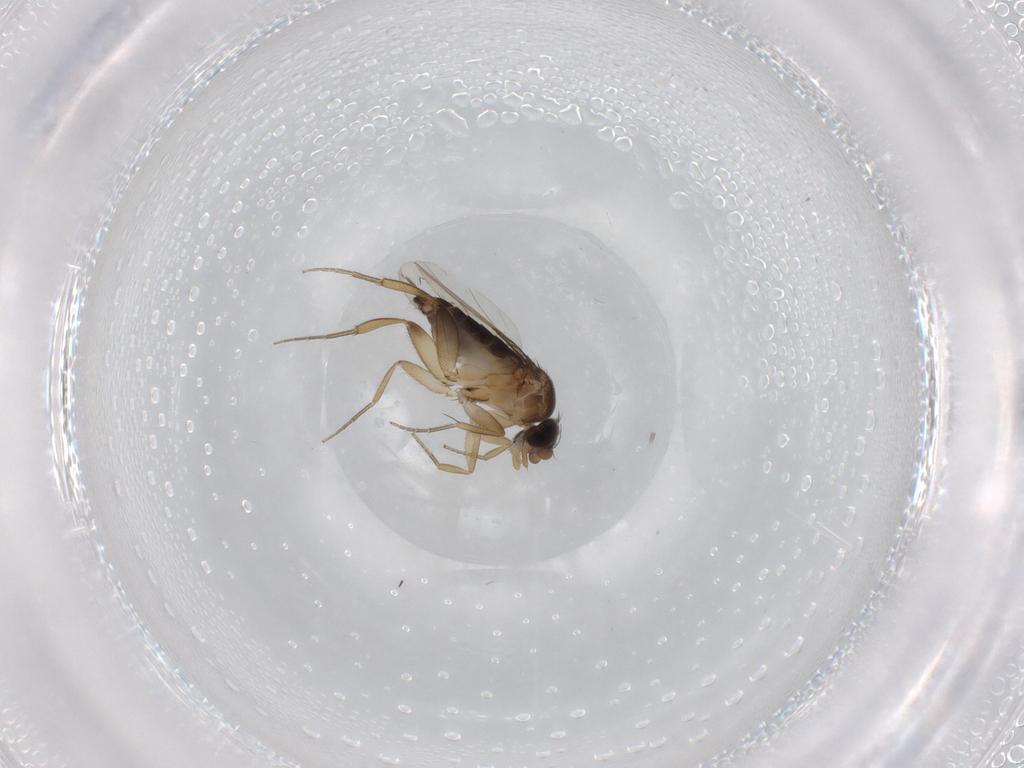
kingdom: Animalia
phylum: Arthropoda
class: Insecta
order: Diptera
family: Phoridae
